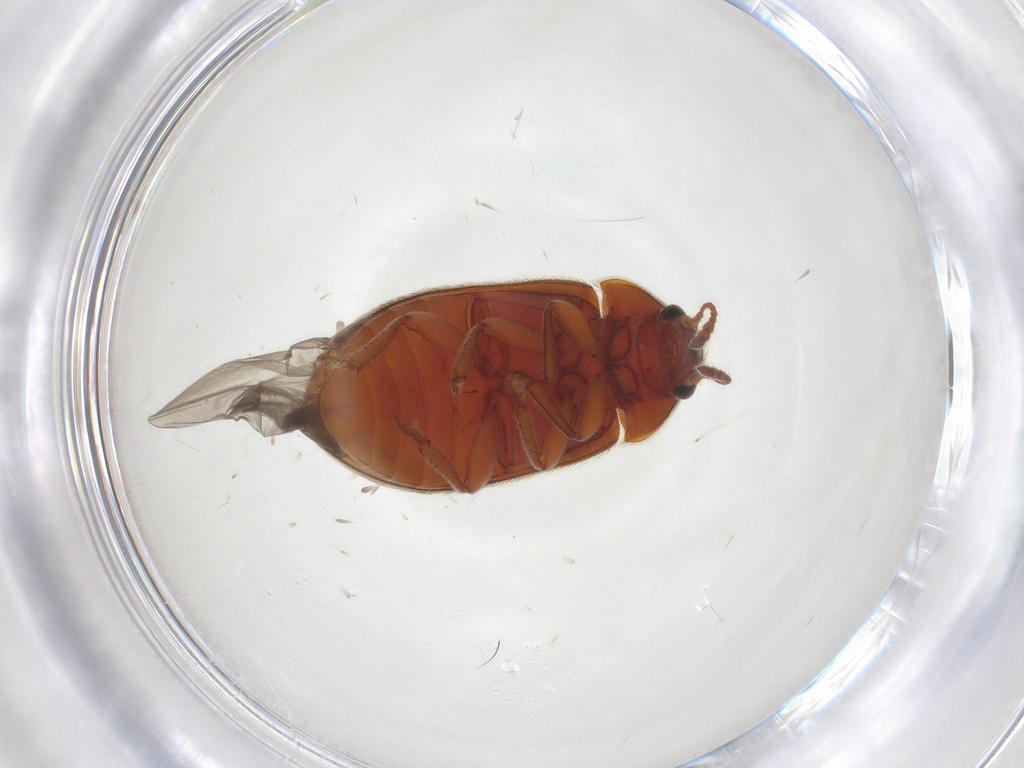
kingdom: Animalia
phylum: Arthropoda
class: Insecta
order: Coleoptera
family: Byturidae
